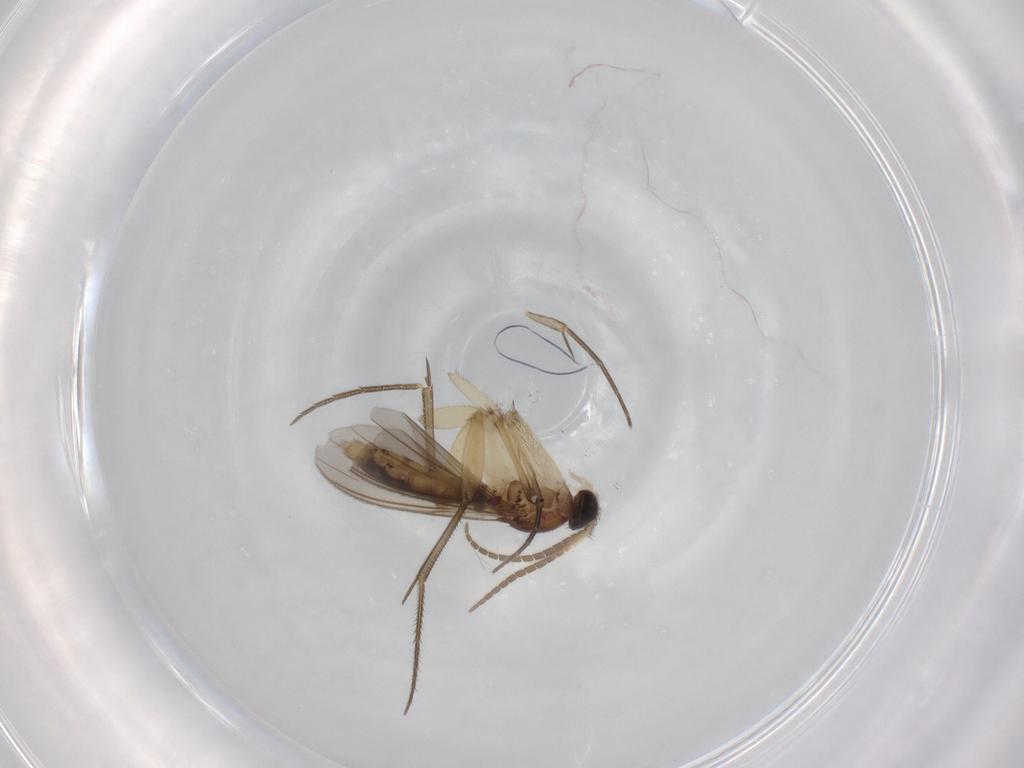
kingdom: Animalia
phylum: Arthropoda
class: Insecta
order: Diptera
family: Mycetophilidae
